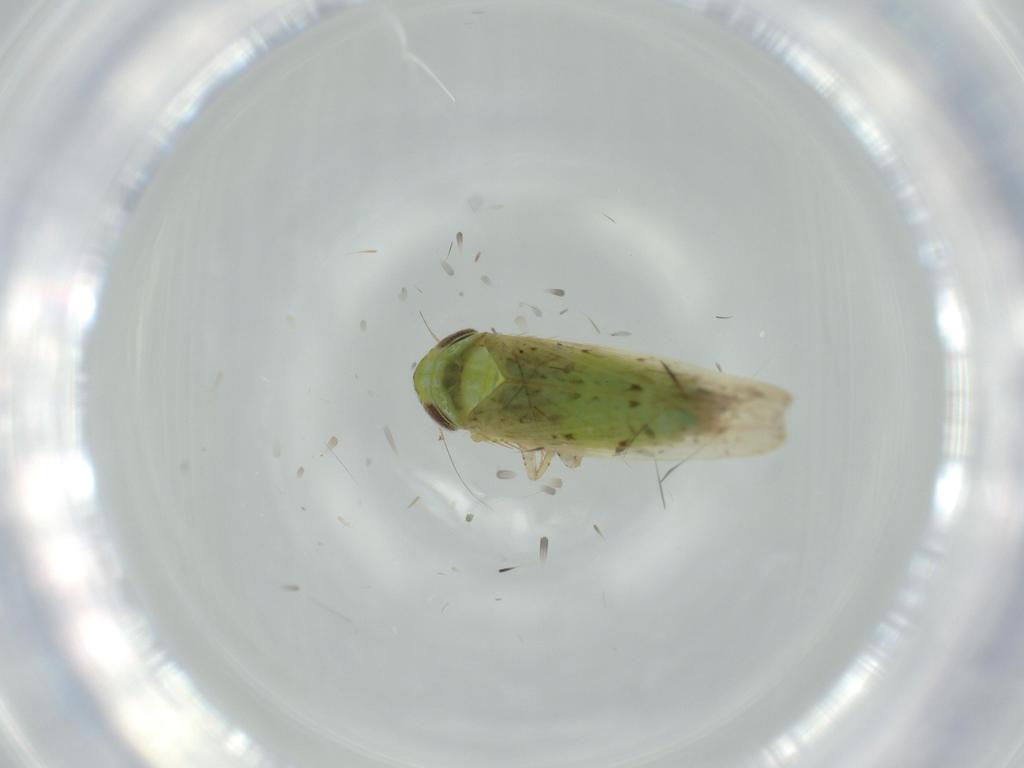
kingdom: Animalia
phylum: Arthropoda
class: Insecta
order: Hemiptera
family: Cicadellidae
